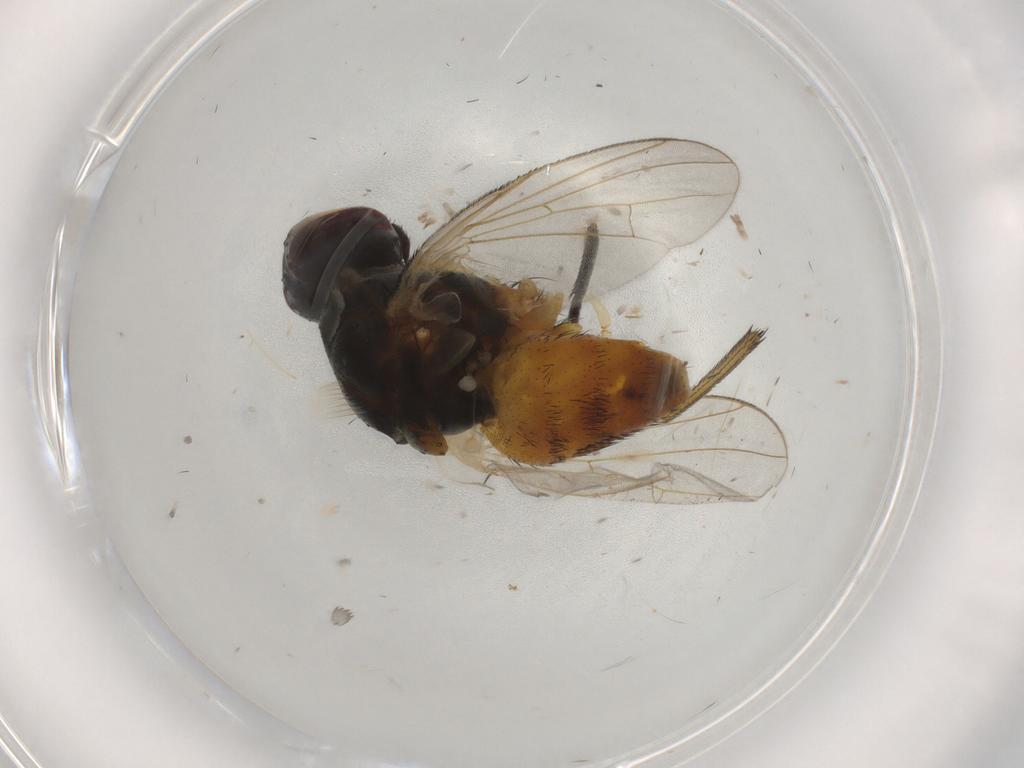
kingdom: Animalia
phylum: Arthropoda
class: Insecta
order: Diptera
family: Muscidae
